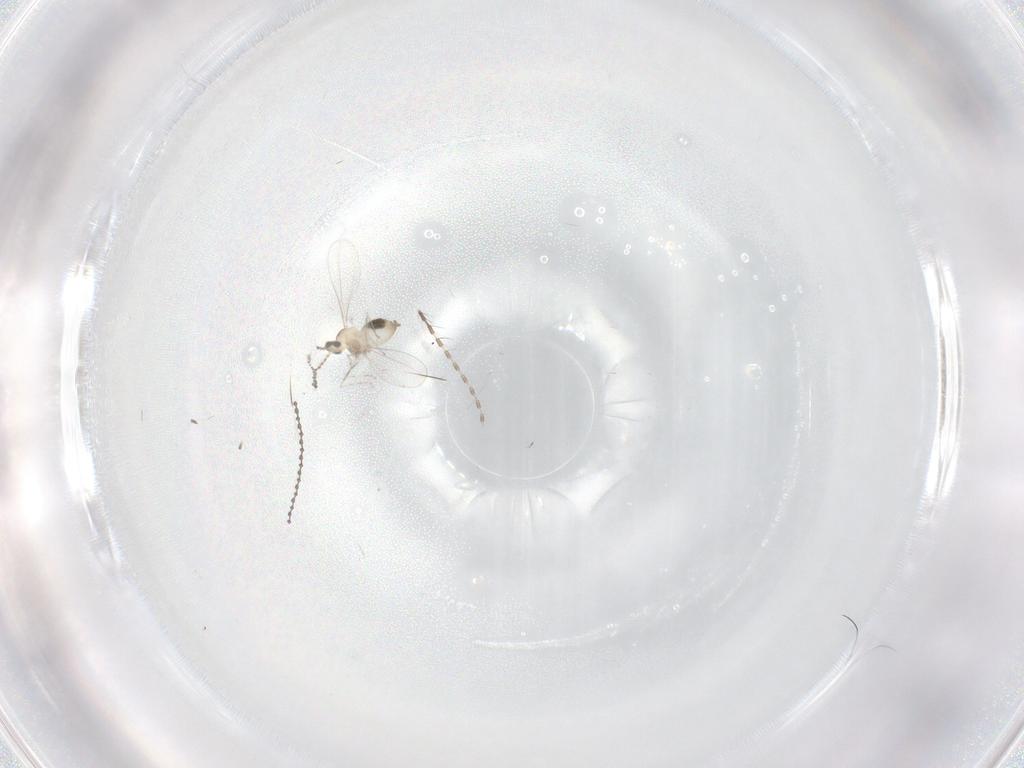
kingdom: Animalia
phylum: Arthropoda
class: Insecta
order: Diptera
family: Cecidomyiidae
